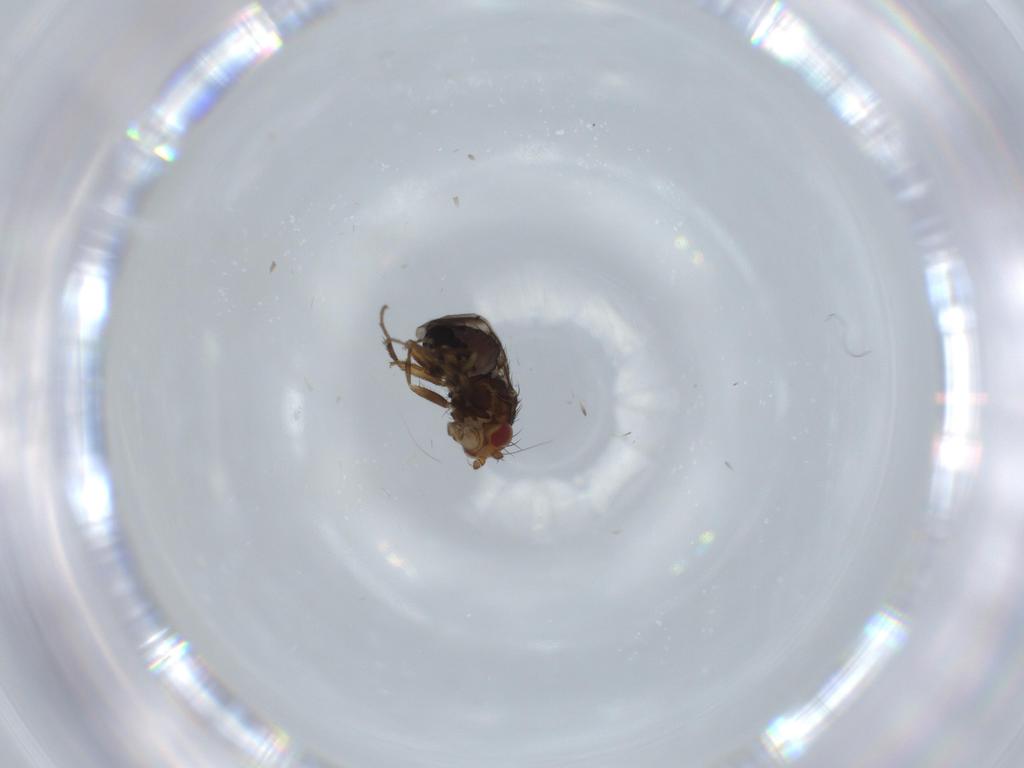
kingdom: Animalia
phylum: Arthropoda
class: Insecta
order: Diptera
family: Sphaeroceridae
